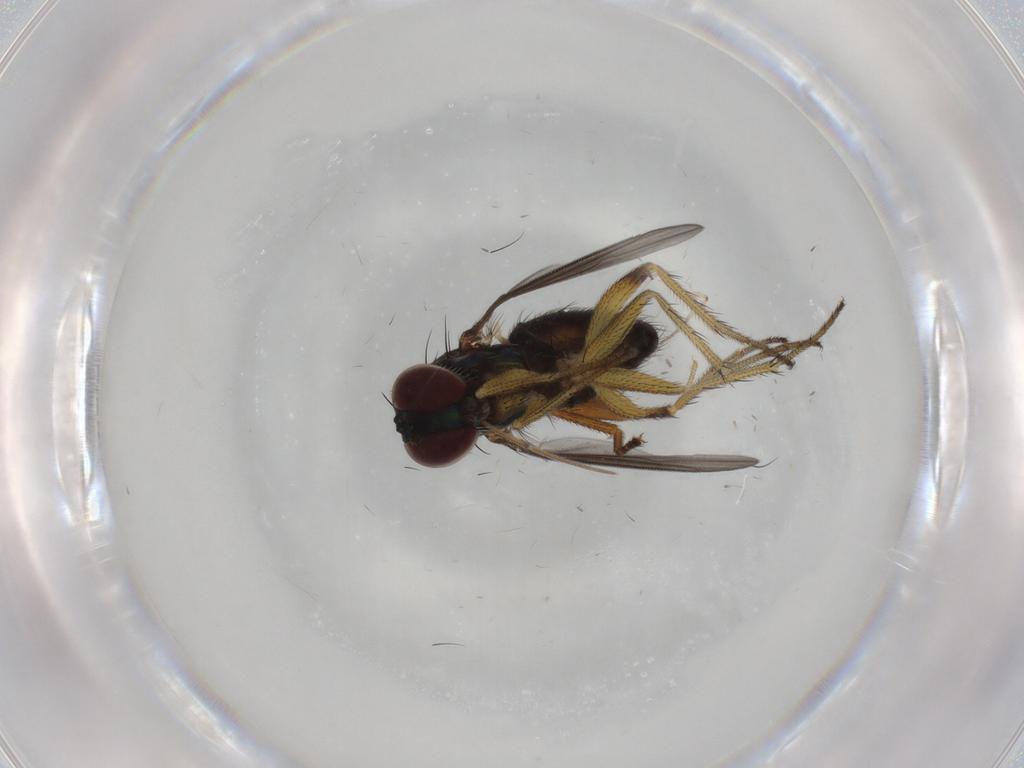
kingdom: Animalia
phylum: Arthropoda
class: Insecta
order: Diptera
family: Dolichopodidae
